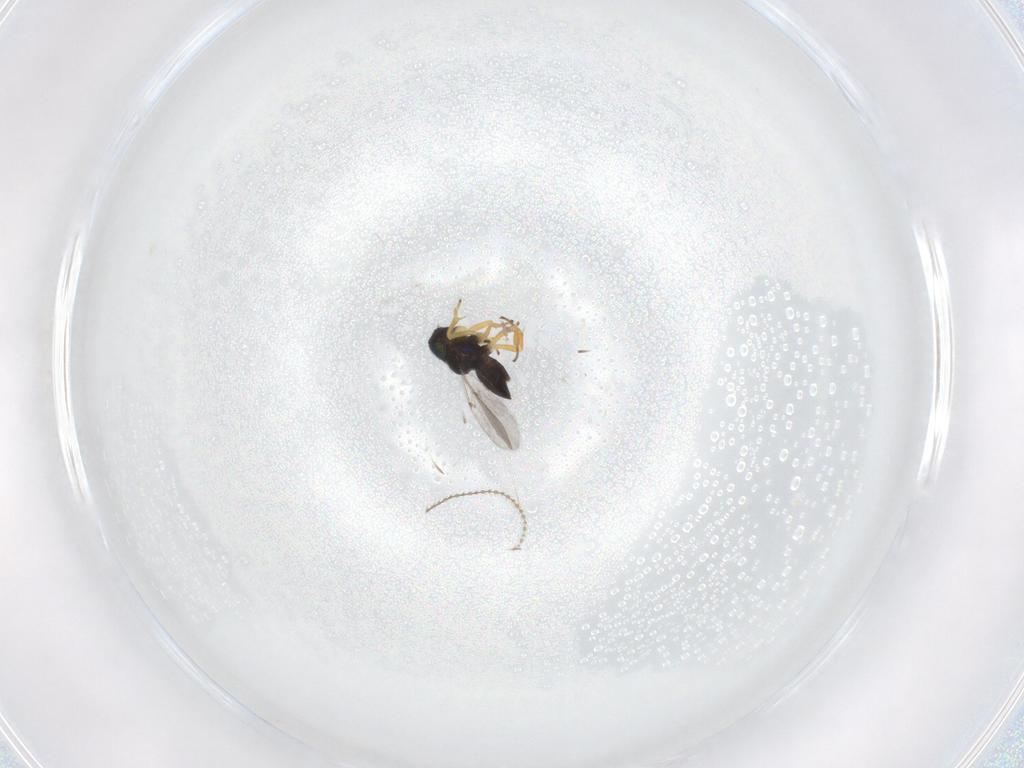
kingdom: Animalia
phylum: Arthropoda
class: Insecta
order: Hymenoptera
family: Encyrtidae
